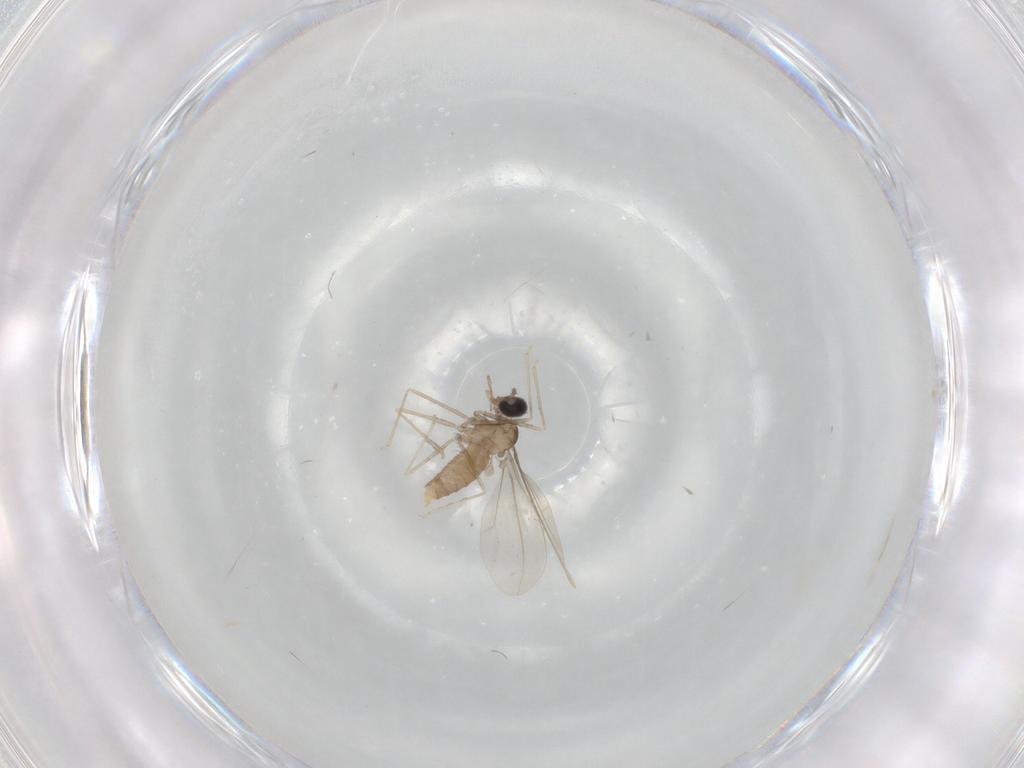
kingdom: Animalia
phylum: Arthropoda
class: Insecta
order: Diptera
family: Cecidomyiidae
